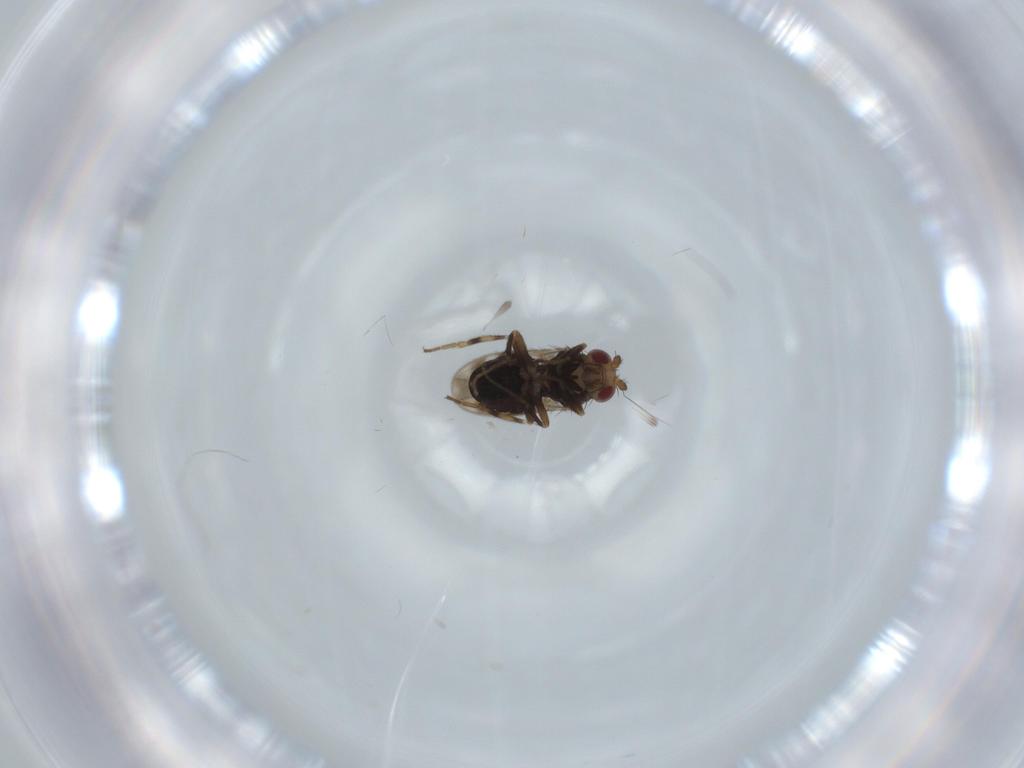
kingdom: Animalia
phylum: Arthropoda
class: Insecta
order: Diptera
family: Sphaeroceridae
